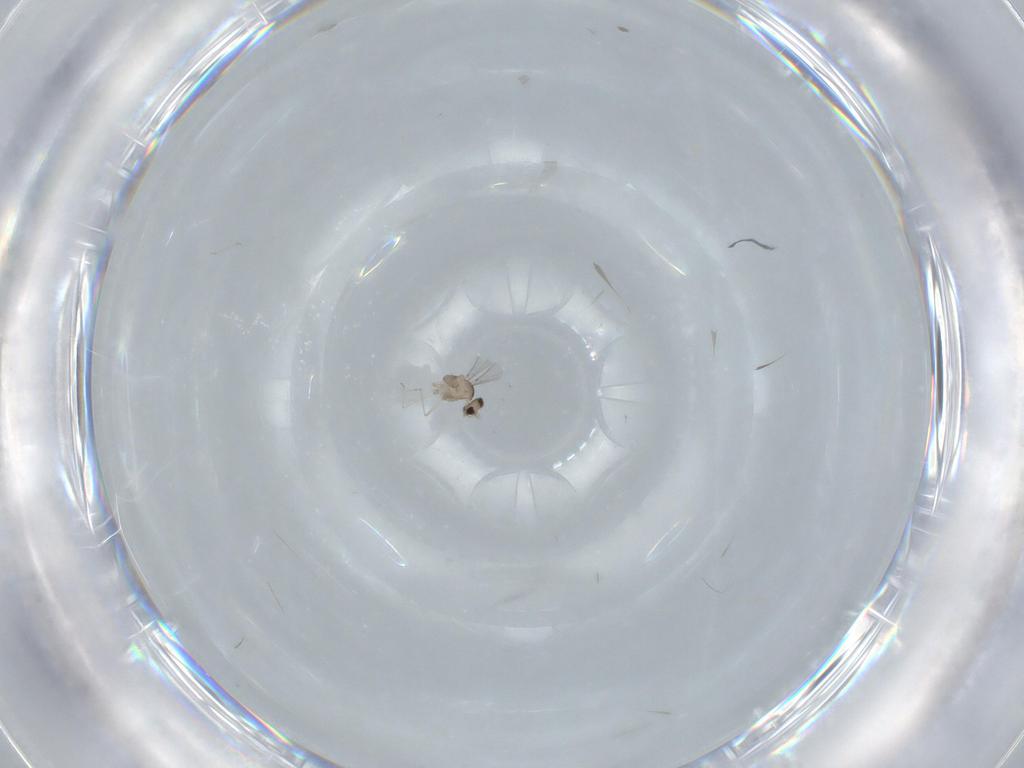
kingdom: Animalia
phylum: Arthropoda
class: Insecta
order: Diptera
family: Cecidomyiidae
